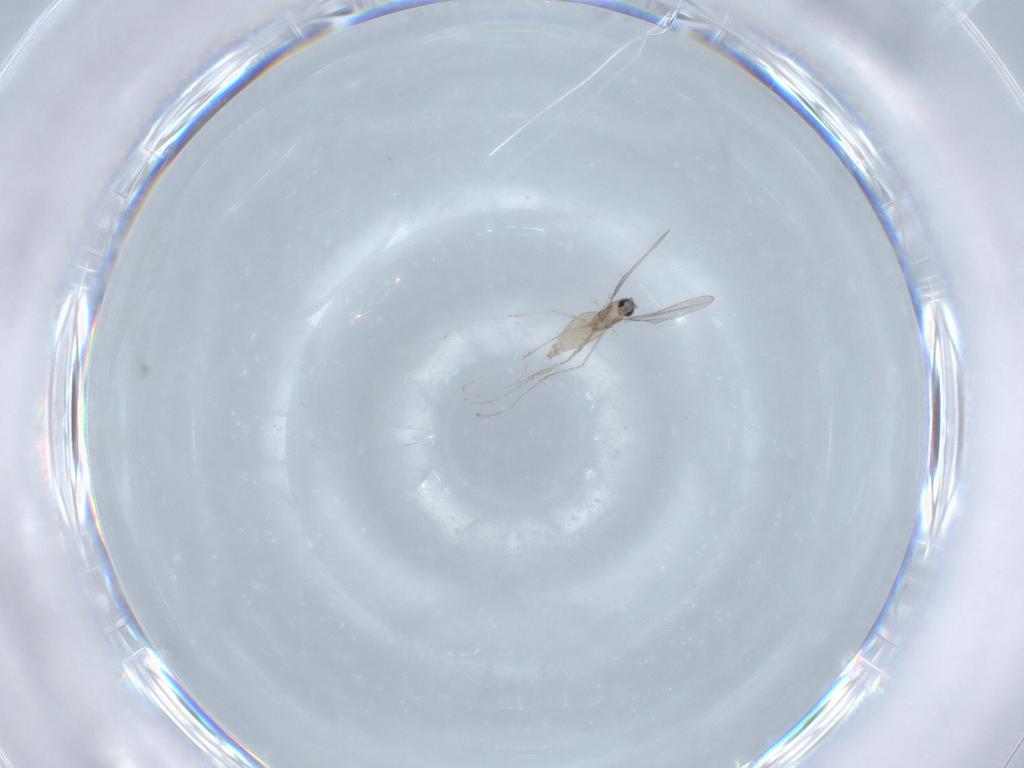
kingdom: Animalia
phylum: Arthropoda
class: Insecta
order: Diptera
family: Cecidomyiidae
